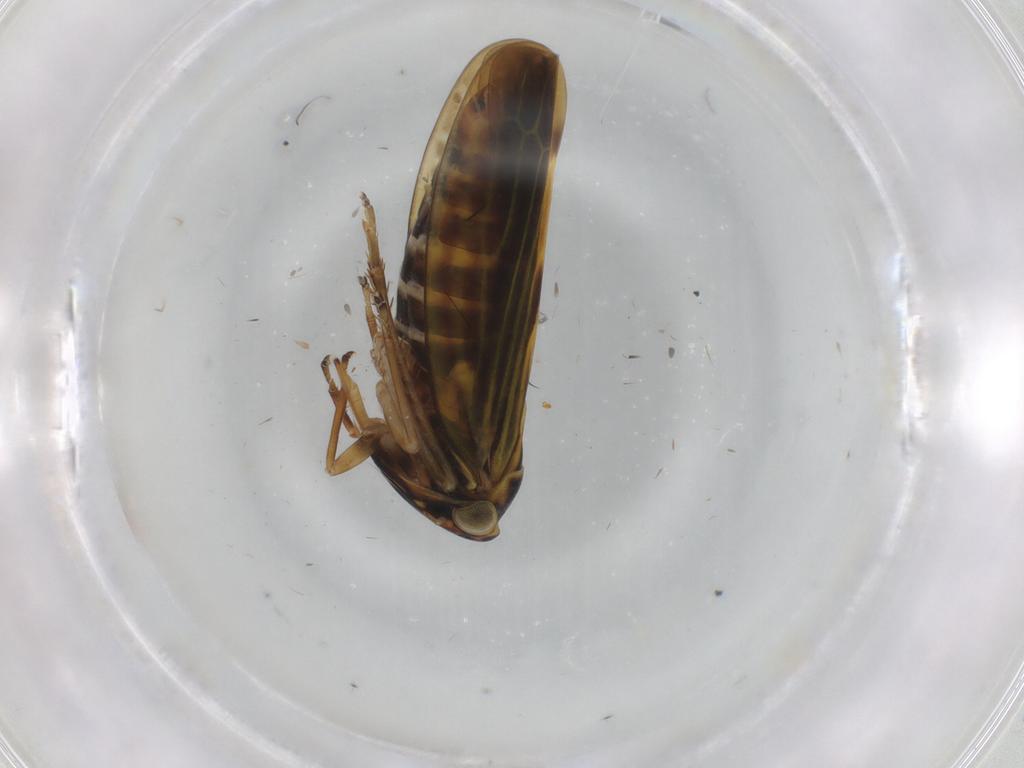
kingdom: Animalia
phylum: Arthropoda
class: Insecta
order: Hemiptera
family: Cicadellidae
